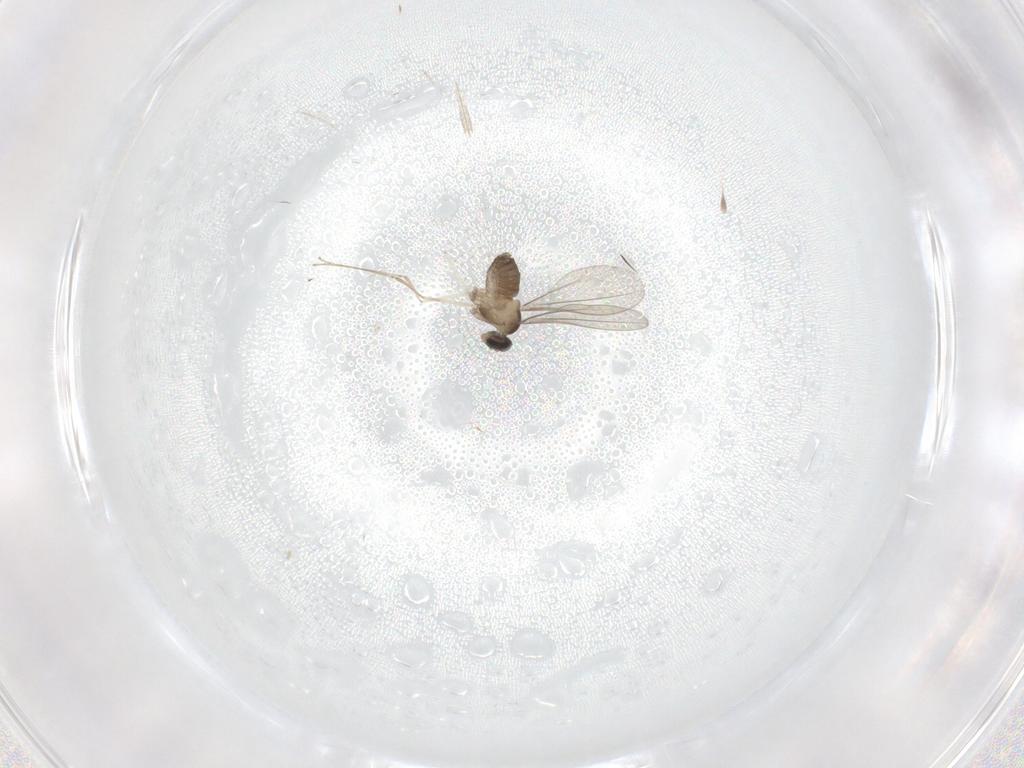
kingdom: Animalia
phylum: Arthropoda
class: Insecta
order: Diptera
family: Cecidomyiidae
